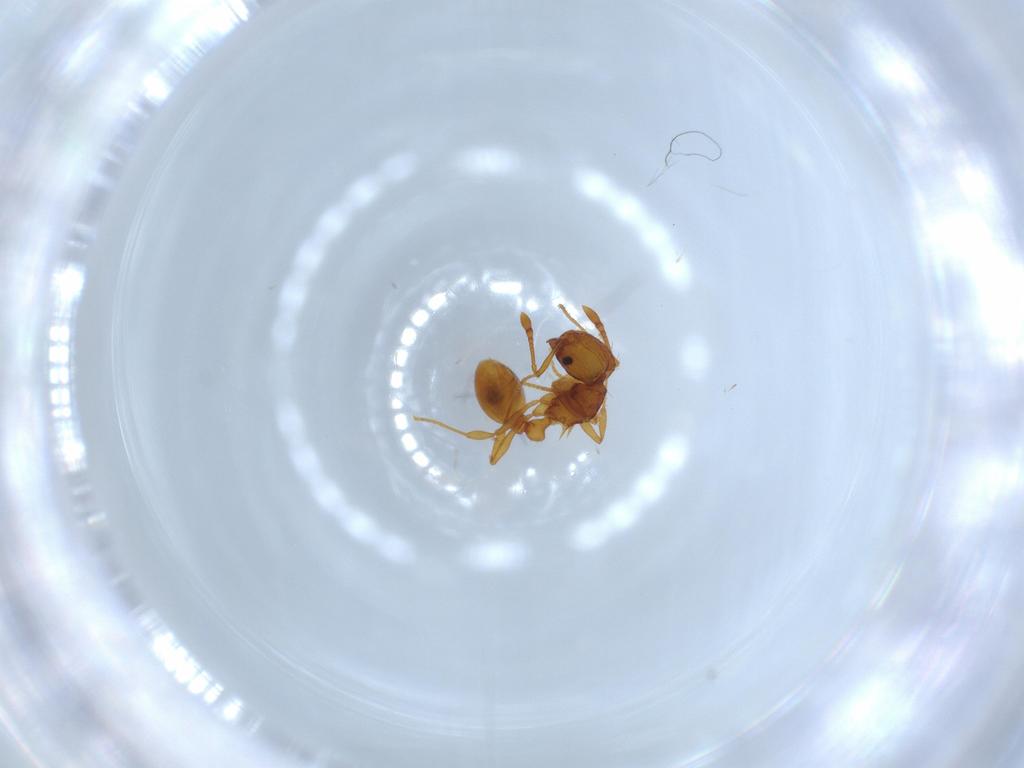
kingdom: Animalia
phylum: Arthropoda
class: Insecta
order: Hymenoptera
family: Formicidae
